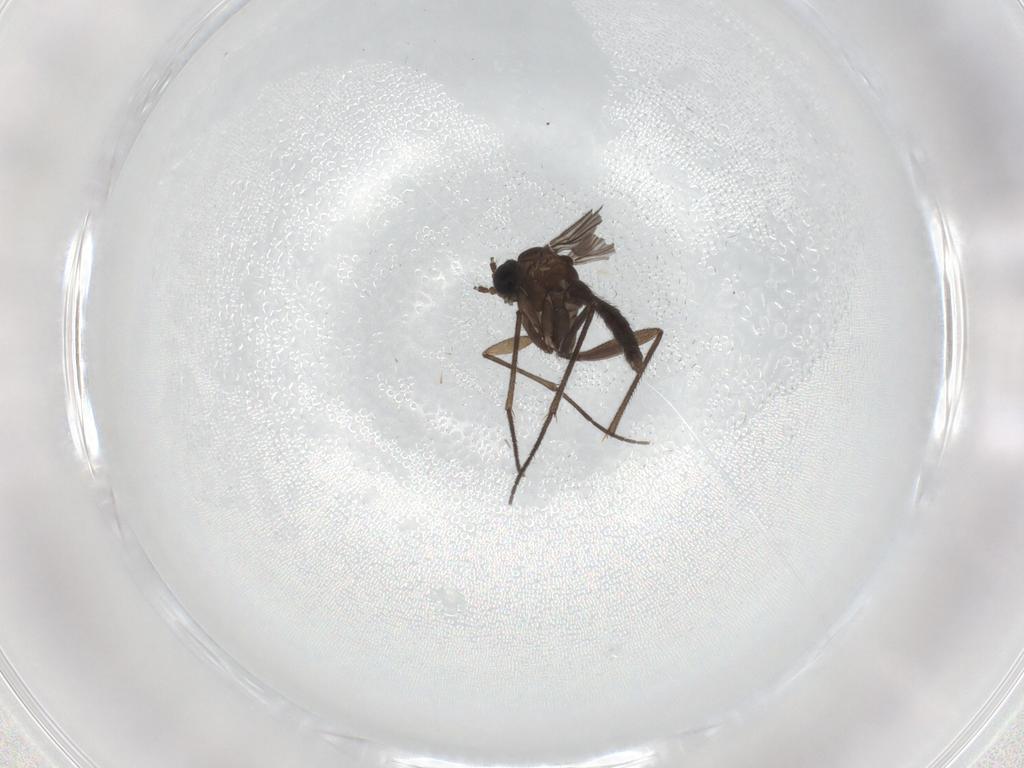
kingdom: Animalia
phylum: Arthropoda
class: Insecta
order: Diptera
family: Sciaridae
